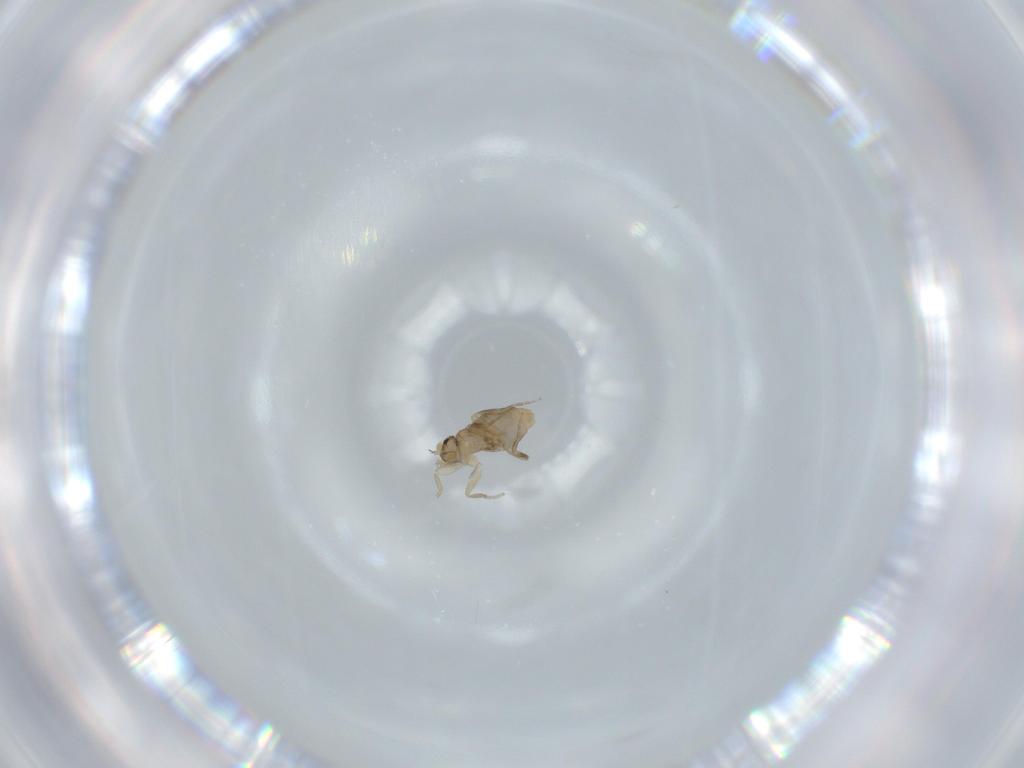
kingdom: Animalia
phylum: Arthropoda
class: Insecta
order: Diptera
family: Phoridae
